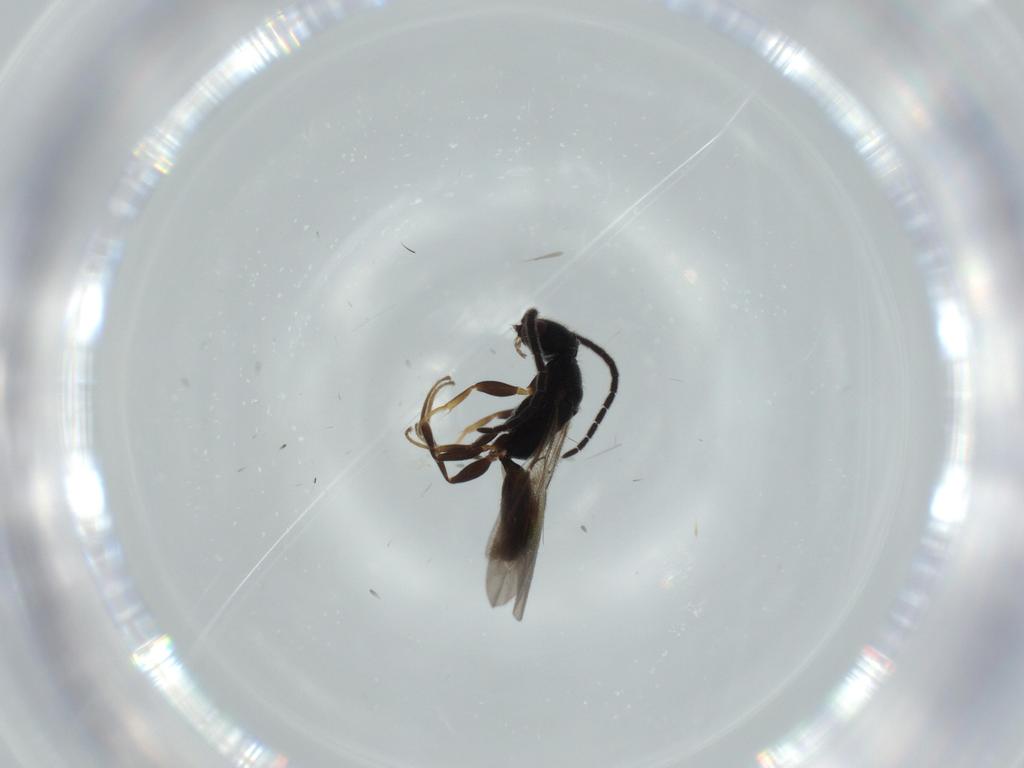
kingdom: Animalia
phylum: Arthropoda
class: Insecta
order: Hymenoptera
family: Bethylidae
